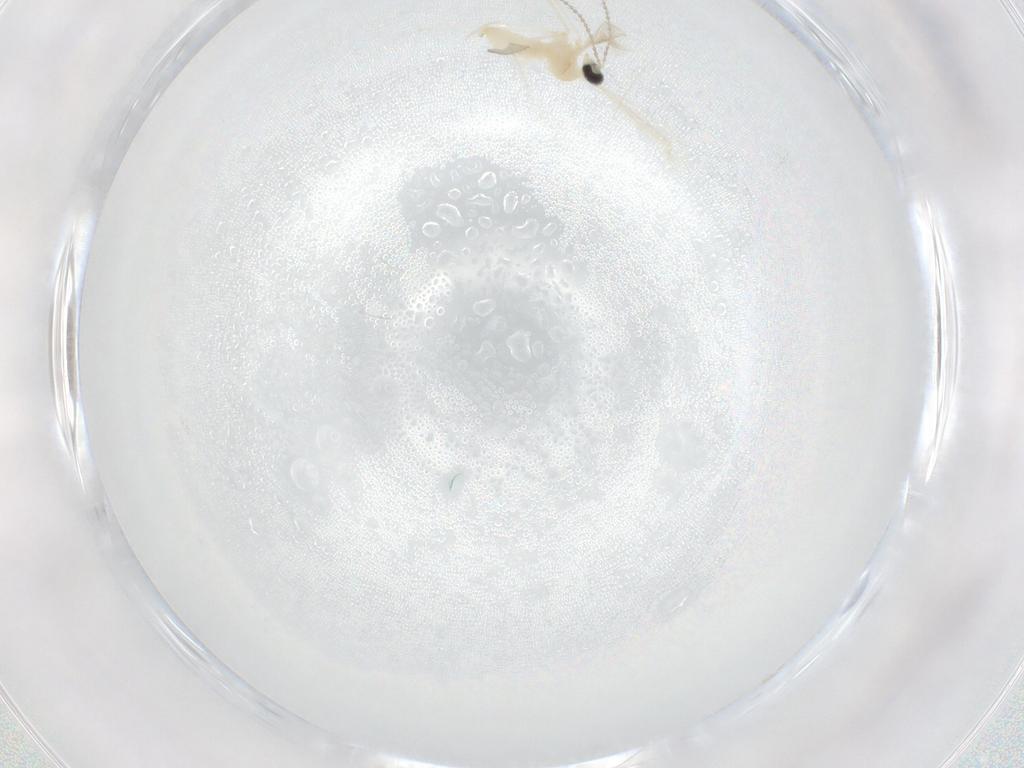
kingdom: Animalia
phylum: Arthropoda
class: Insecta
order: Diptera
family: Cecidomyiidae
